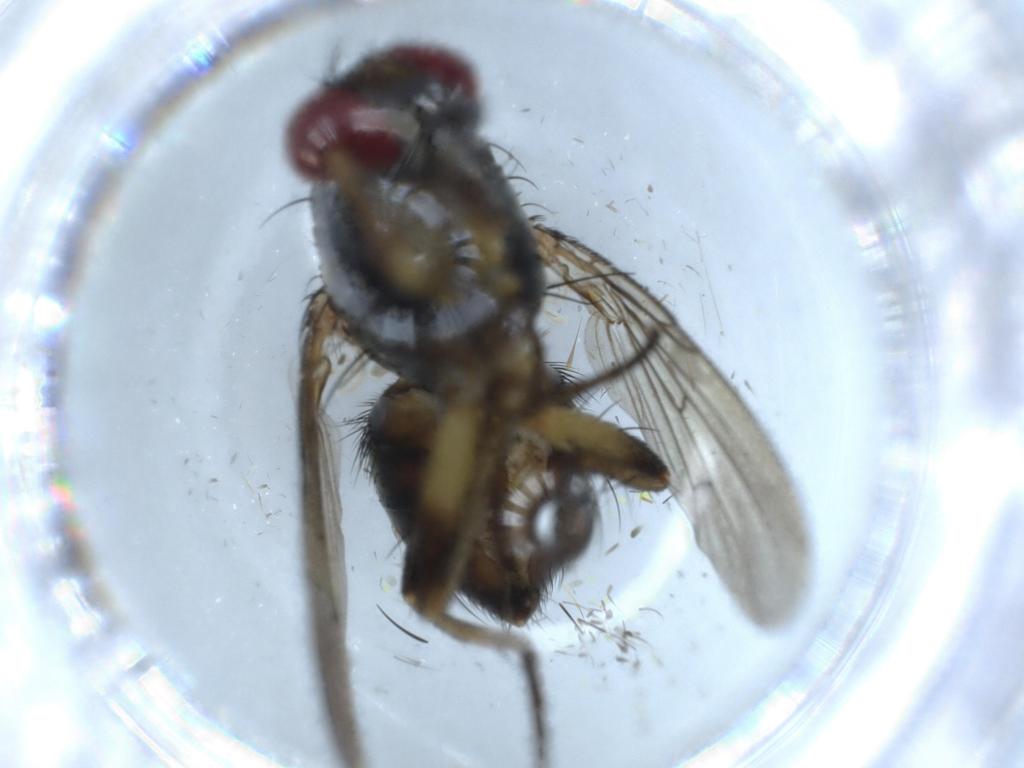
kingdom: Animalia
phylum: Arthropoda
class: Insecta
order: Diptera
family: Muscidae
